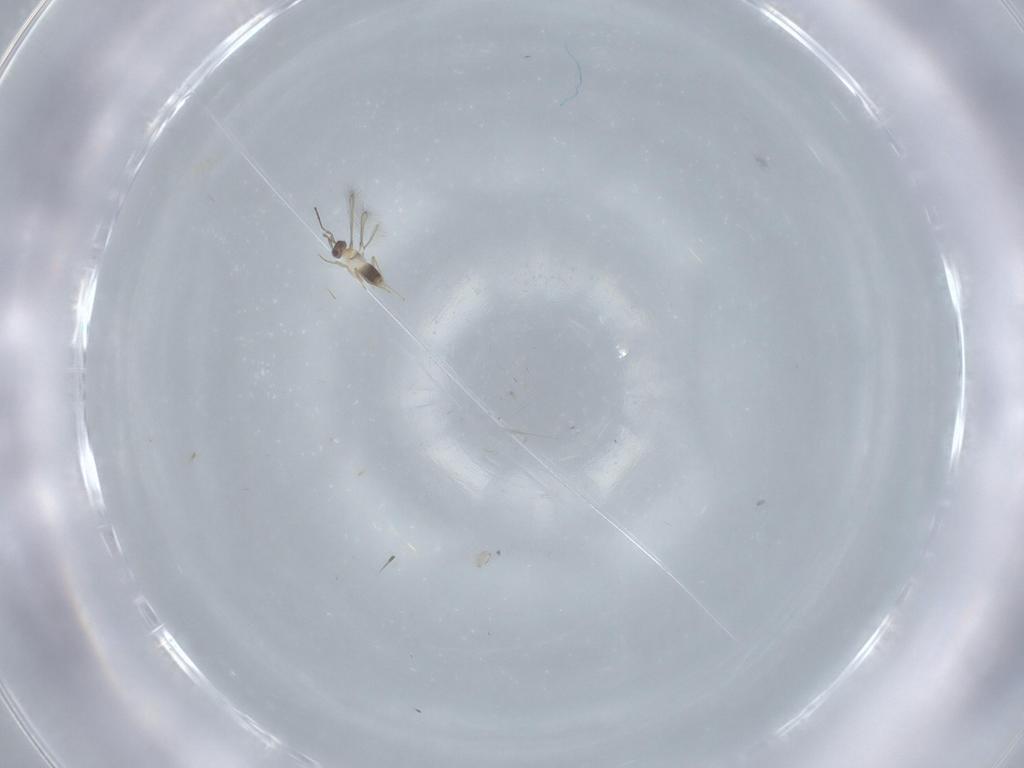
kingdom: Animalia
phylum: Arthropoda
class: Insecta
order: Hymenoptera
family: Mymaridae
